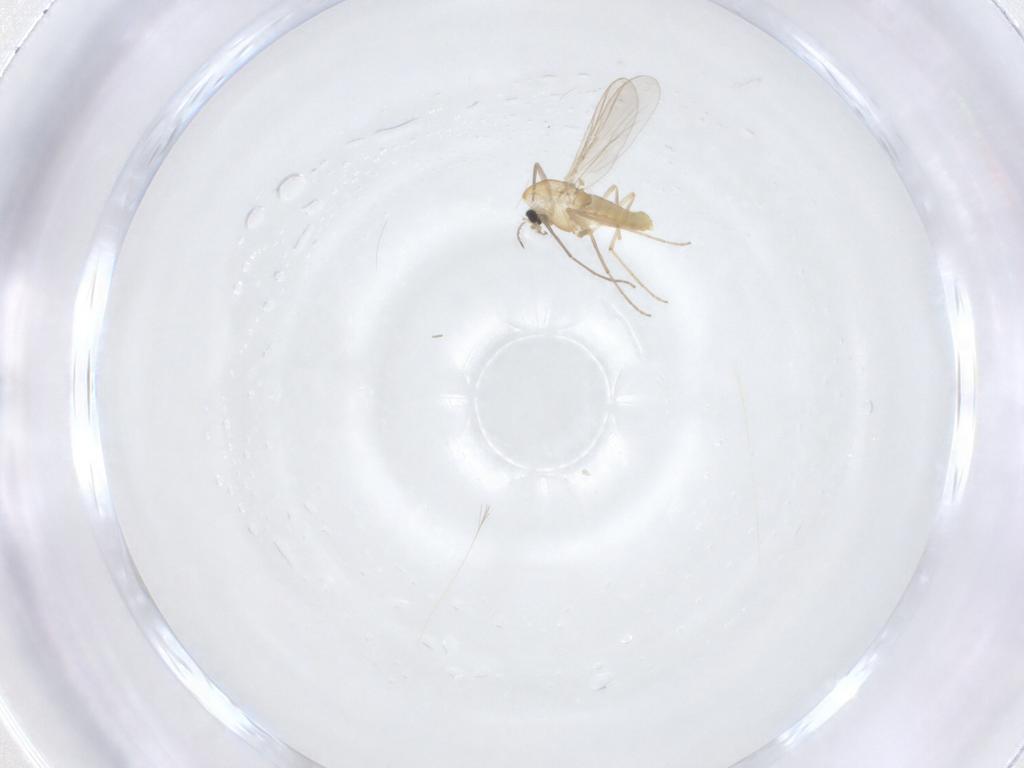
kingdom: Animalia
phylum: Arthropoda
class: Insecta
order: Diptera
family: Chironomidae
